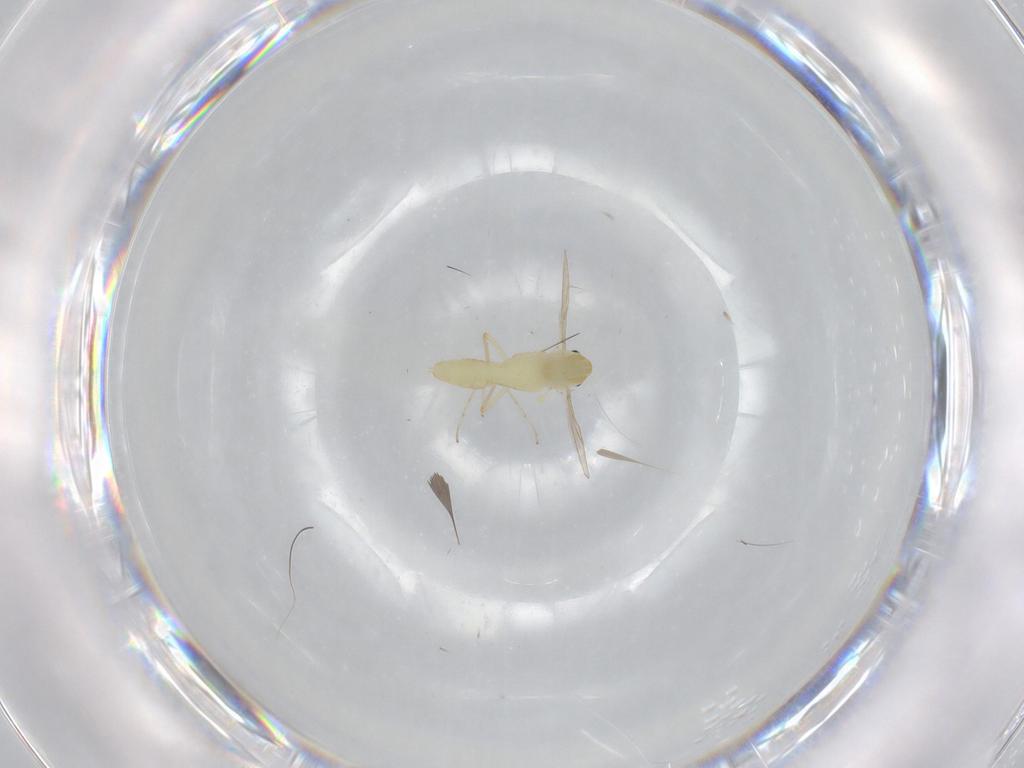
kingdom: Animalia
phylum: Arthropoda
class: Insecta
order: Diptera
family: Chironomidae
